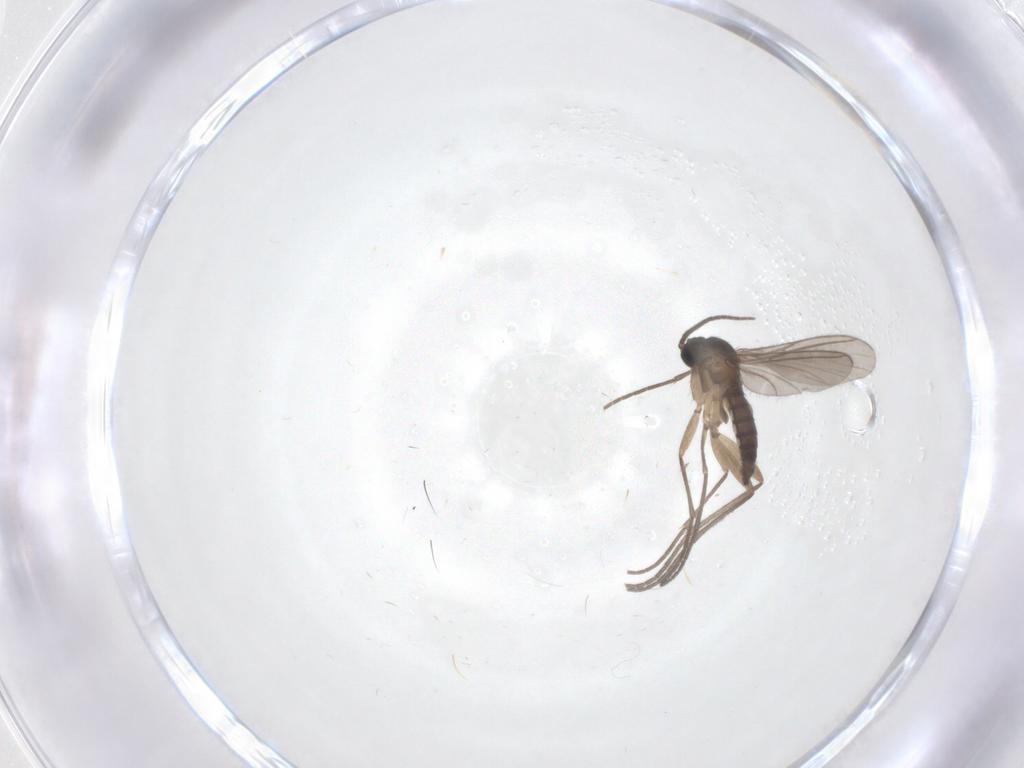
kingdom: Animalia
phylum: Arthropoda
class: Insecta
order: Diptera
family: Sciaridae
